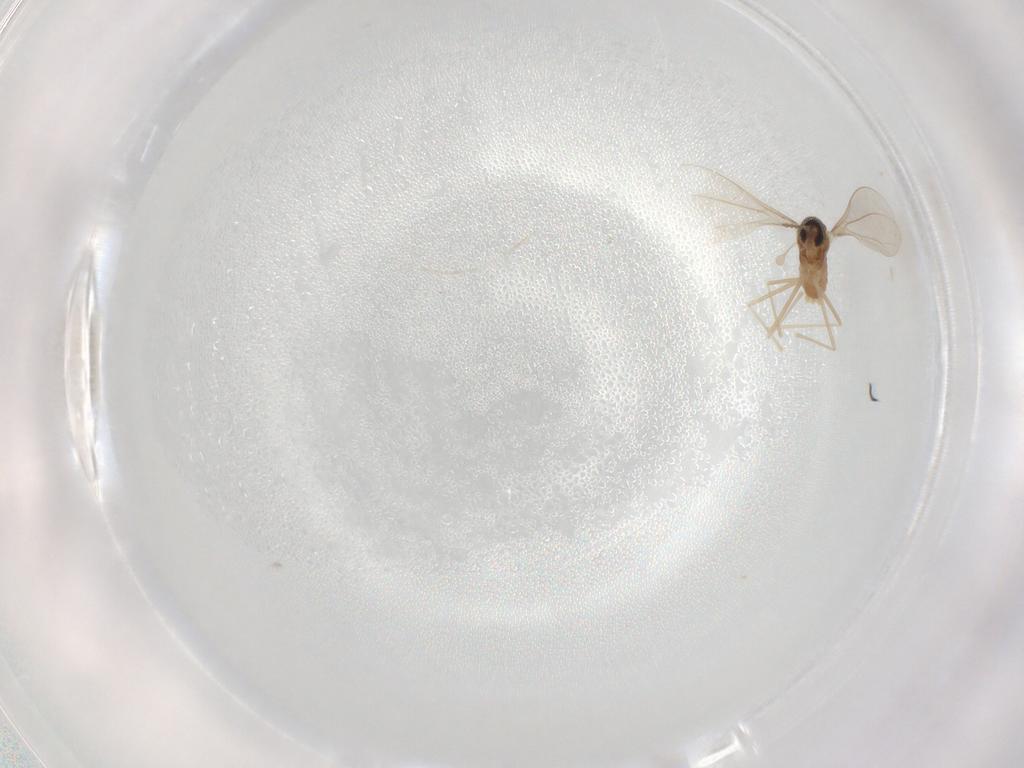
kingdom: Animalia
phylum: Arthropoda
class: Insecta
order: Diptera
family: Cecidomyiidae
